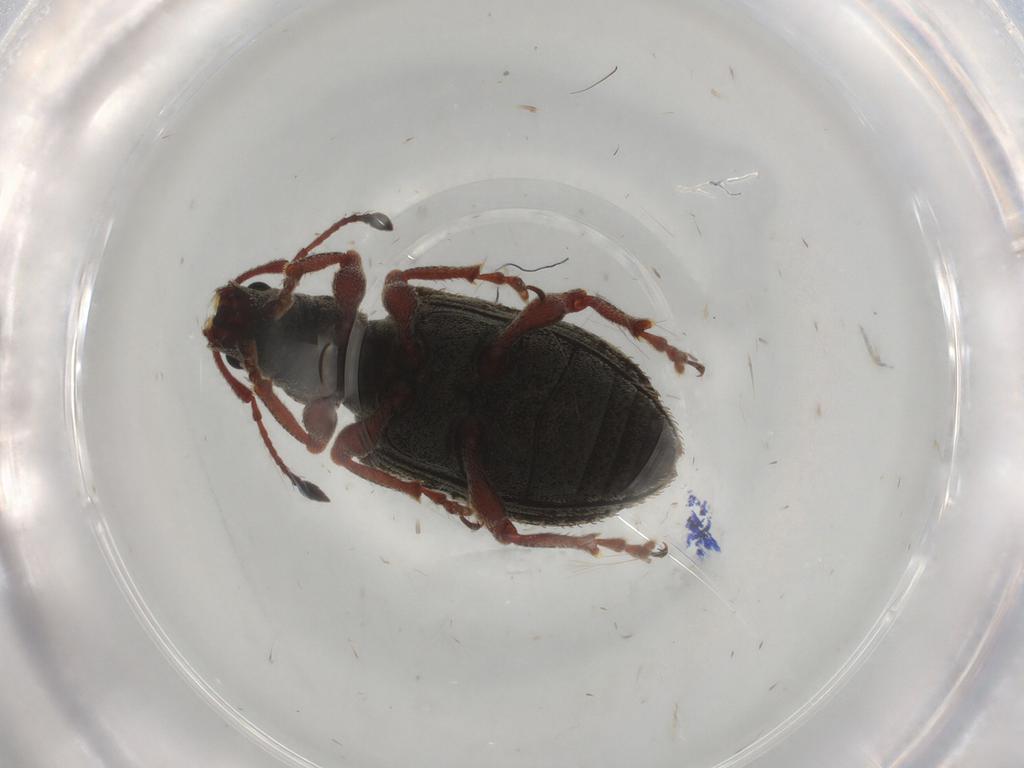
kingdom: Animalia
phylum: Arthropoda
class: Insecta
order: Coleoptera
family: Curculionidae
